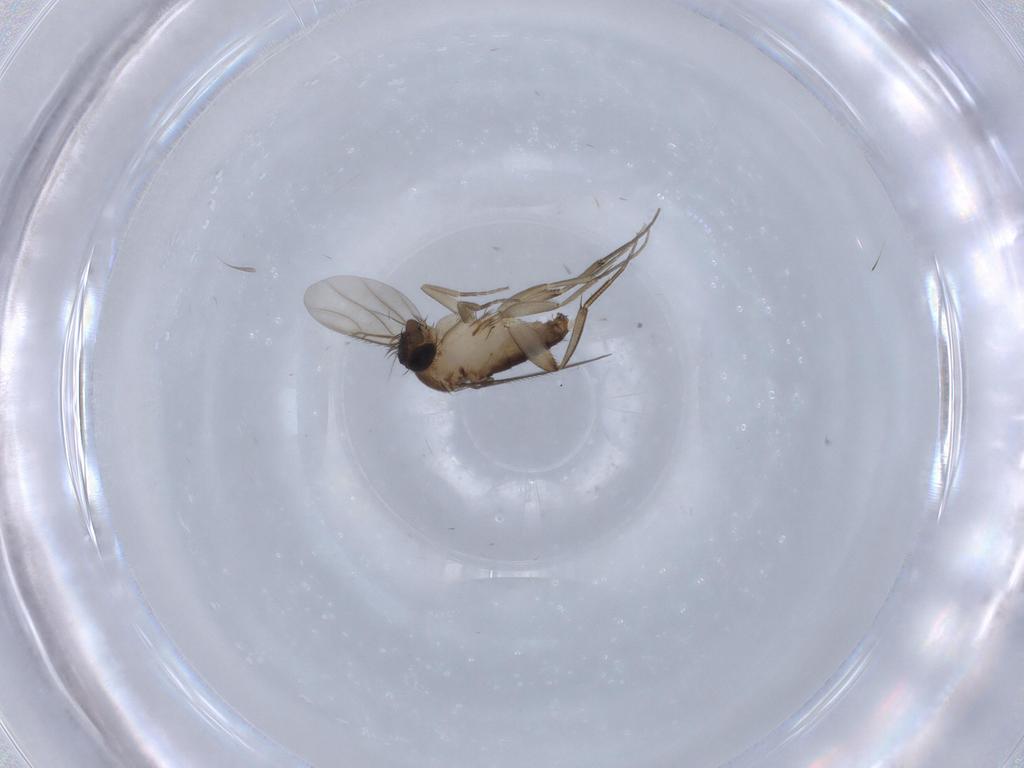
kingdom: Animalia
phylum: Arthropoda
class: Insecta
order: Diptera
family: Phoridae
